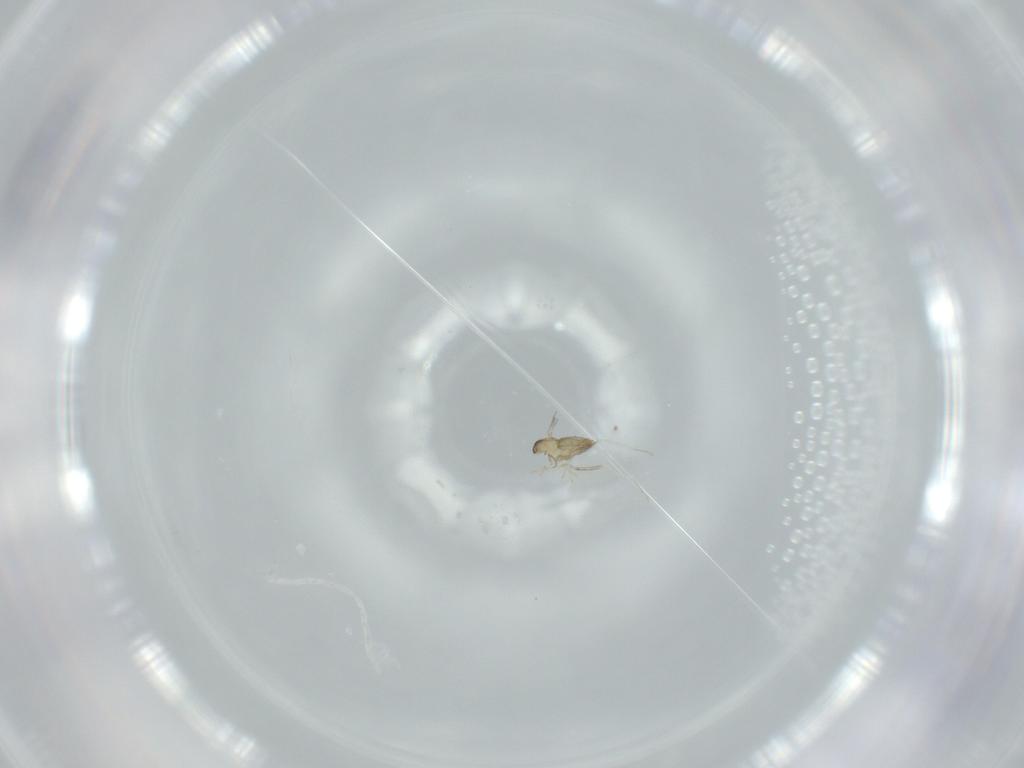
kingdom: Animalia
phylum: Arthropoda
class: Insecta
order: Diptera
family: Cecidomyiidae
